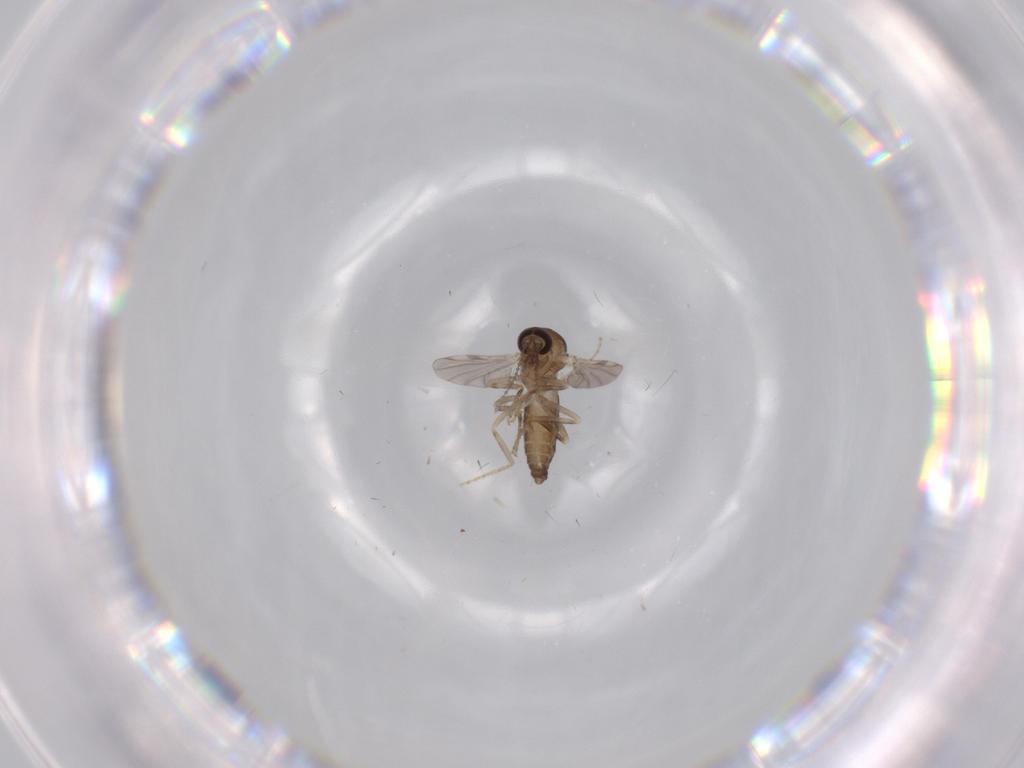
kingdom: Animalia
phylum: Arthropoda
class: Insecta
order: Diptera
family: Ceratopogonidae
